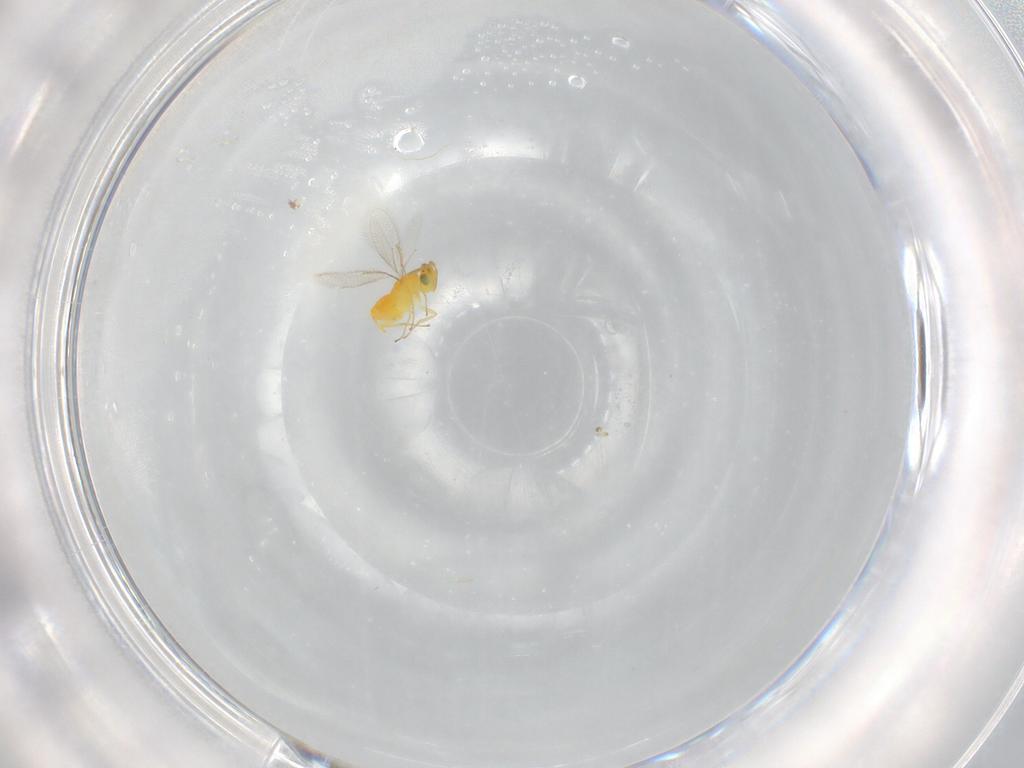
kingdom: Animalia
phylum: Arthropoda
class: Insecta
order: Hymenoptera
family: Aphelinidae
